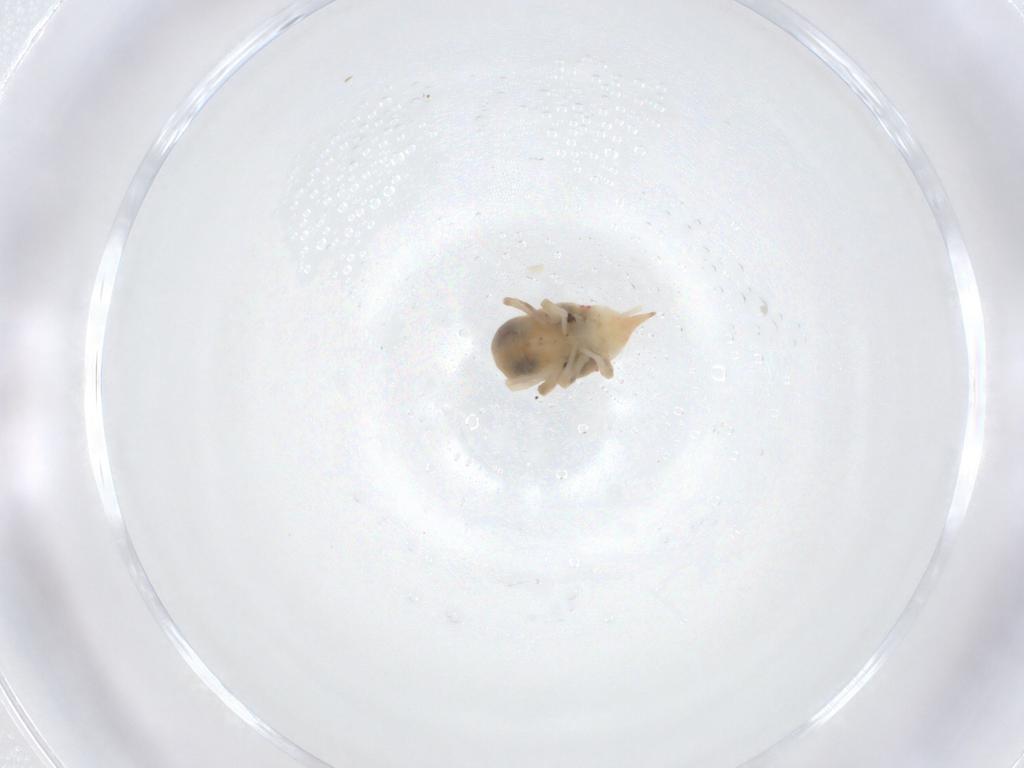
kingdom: Animalia
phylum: Arthropoda
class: Arachnida
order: Trombidiformes
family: Bdellidae
